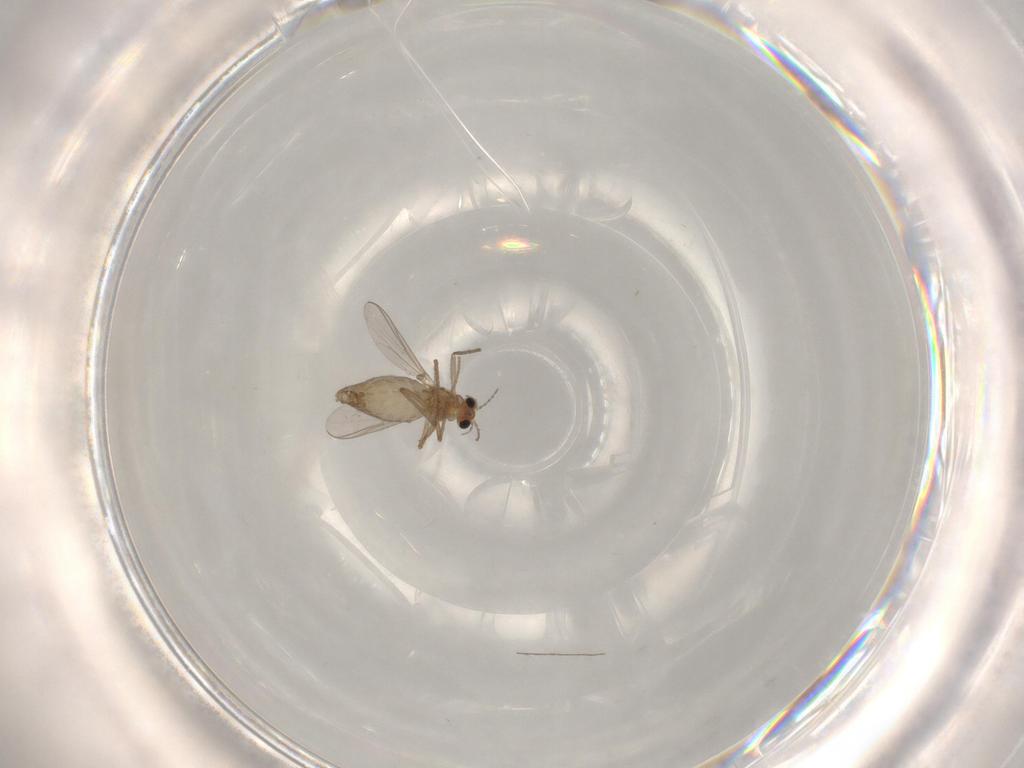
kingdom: Animalia
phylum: Arthropoda
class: Insecta
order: Diptera
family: Chironomidae
